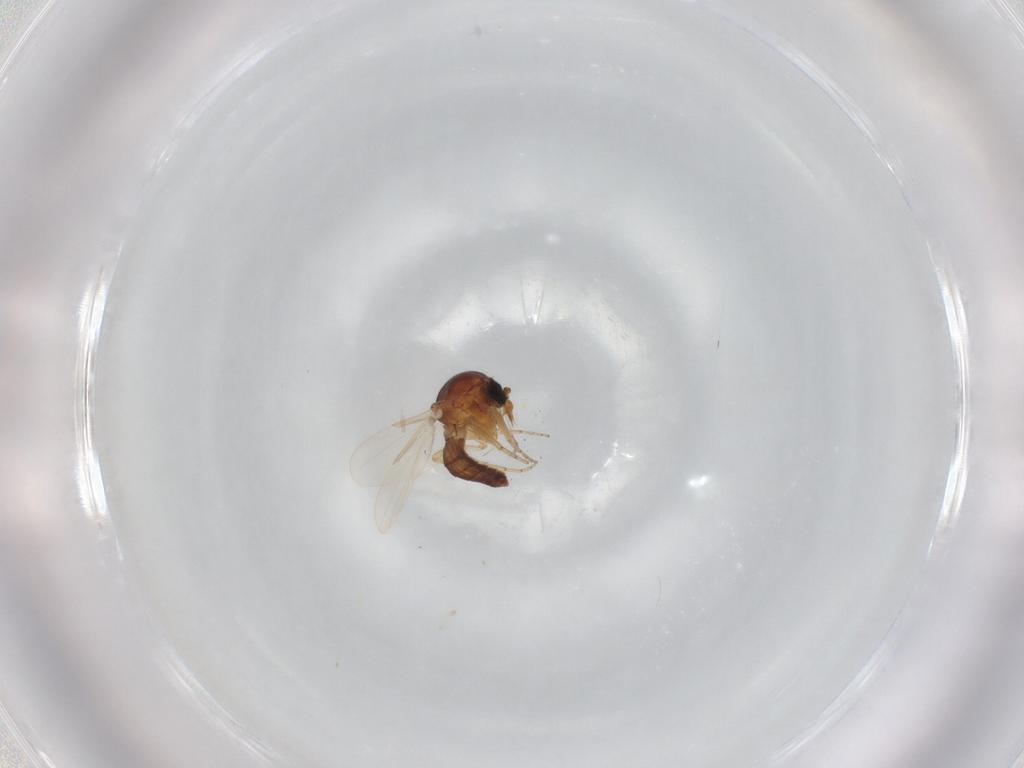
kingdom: Animalia
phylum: Arthropoda
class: Insecta
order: Diptera
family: Ceratopogonidae
